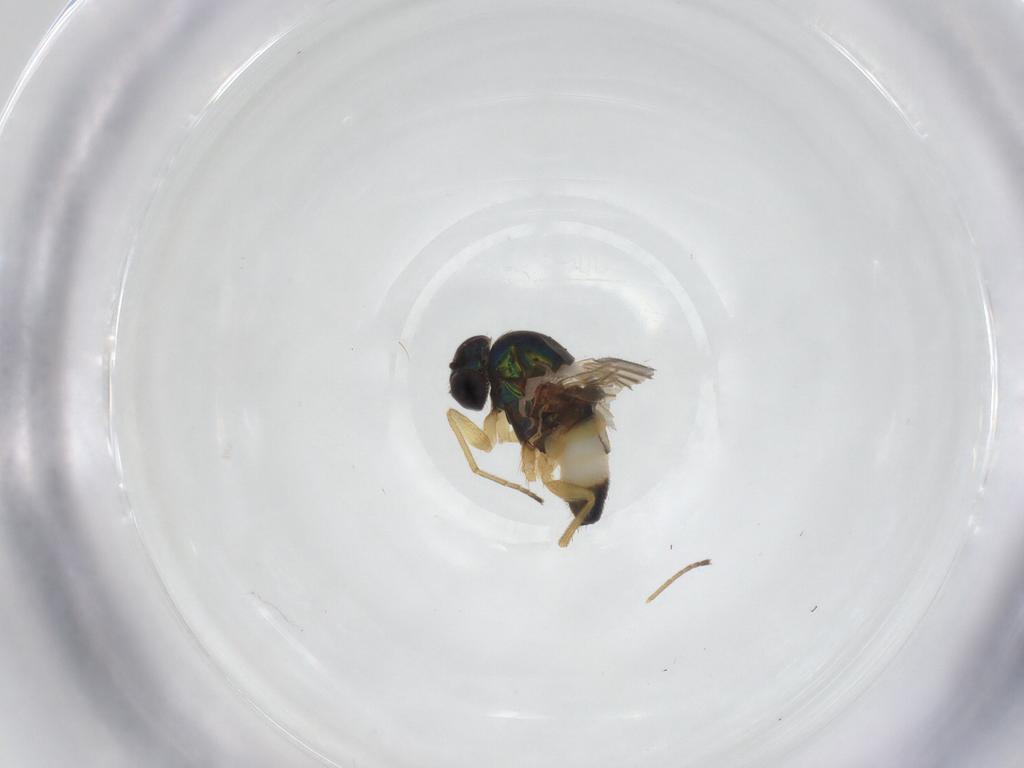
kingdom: Animalia
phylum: Arthropoda
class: Insecta
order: Diptera
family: Dolichopodidae
